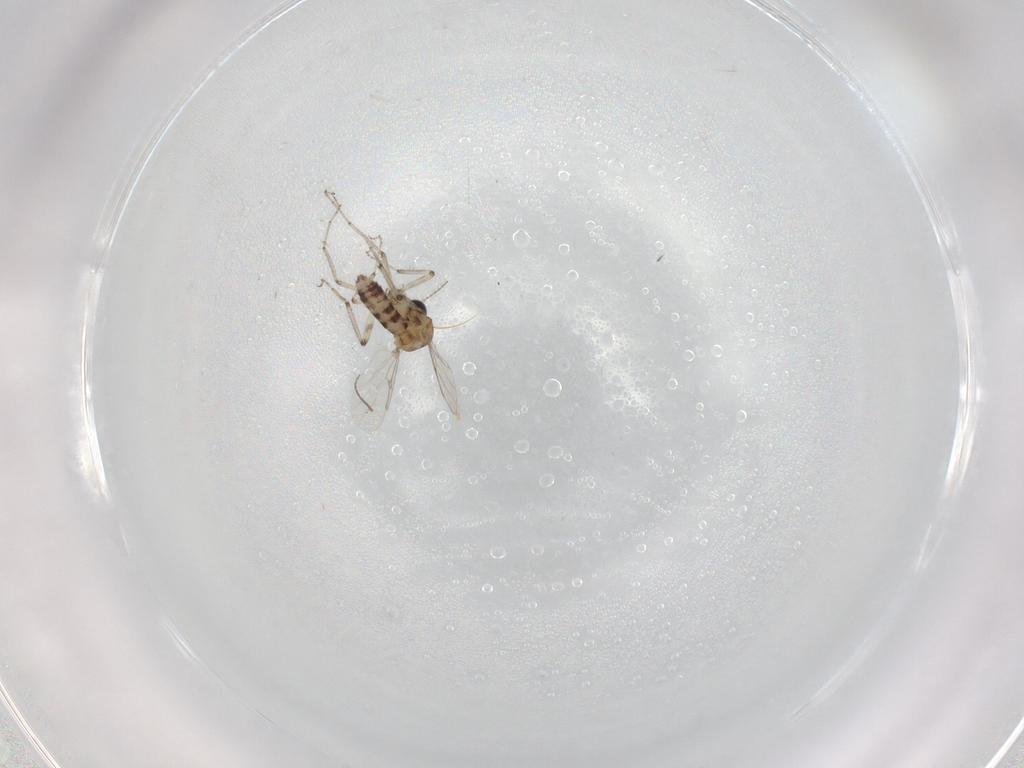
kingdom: Animalia
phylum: Arthropoda
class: Insecta
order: Diptera
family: Ceratopogonidae
